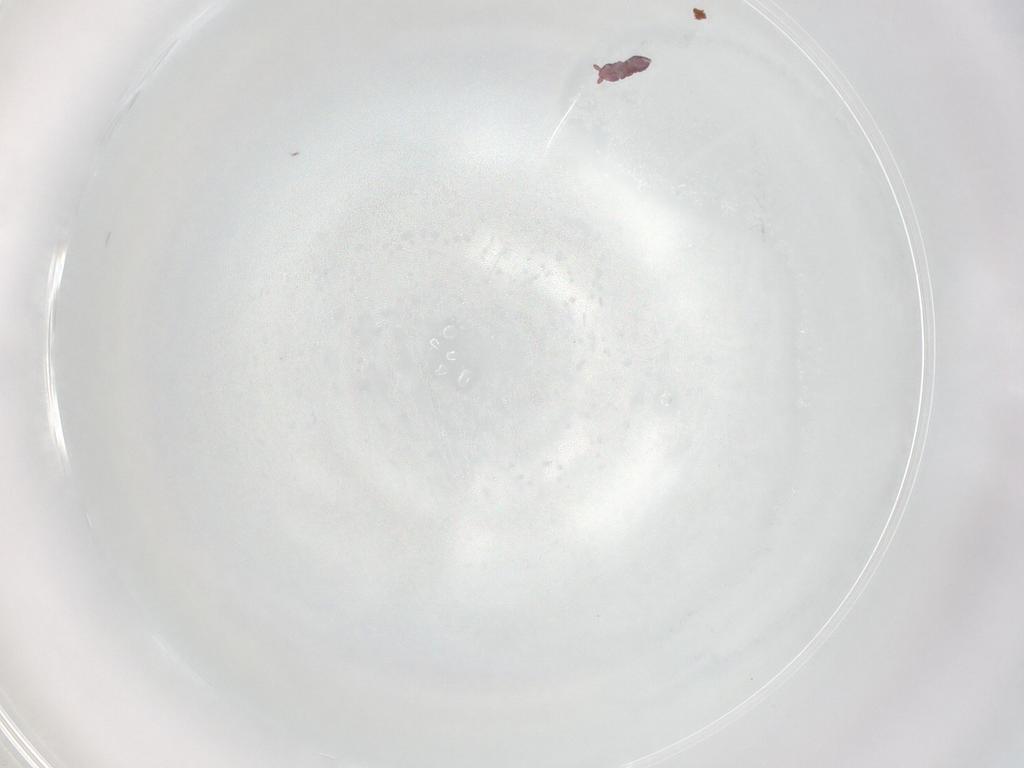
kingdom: Animalia
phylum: Arthropoda
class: Collembola
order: Poduromorpha
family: Hypogastruridae
